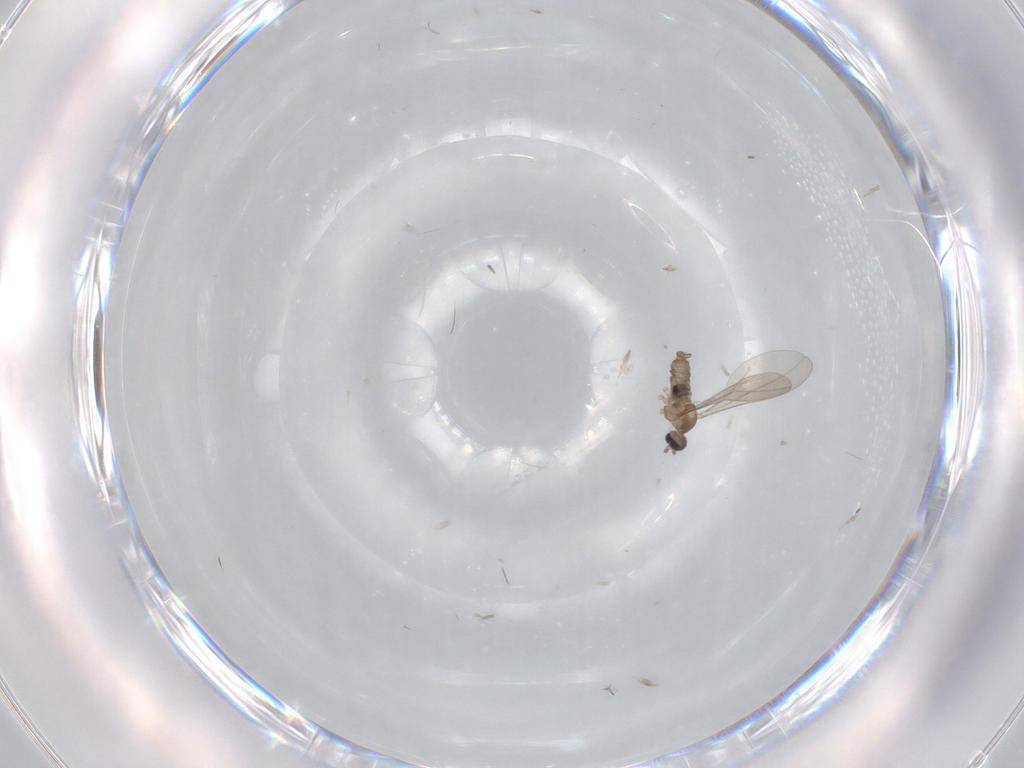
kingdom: Animalia
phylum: Arthropoda
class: Insecta
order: Diptera
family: Cecidomyiidae
